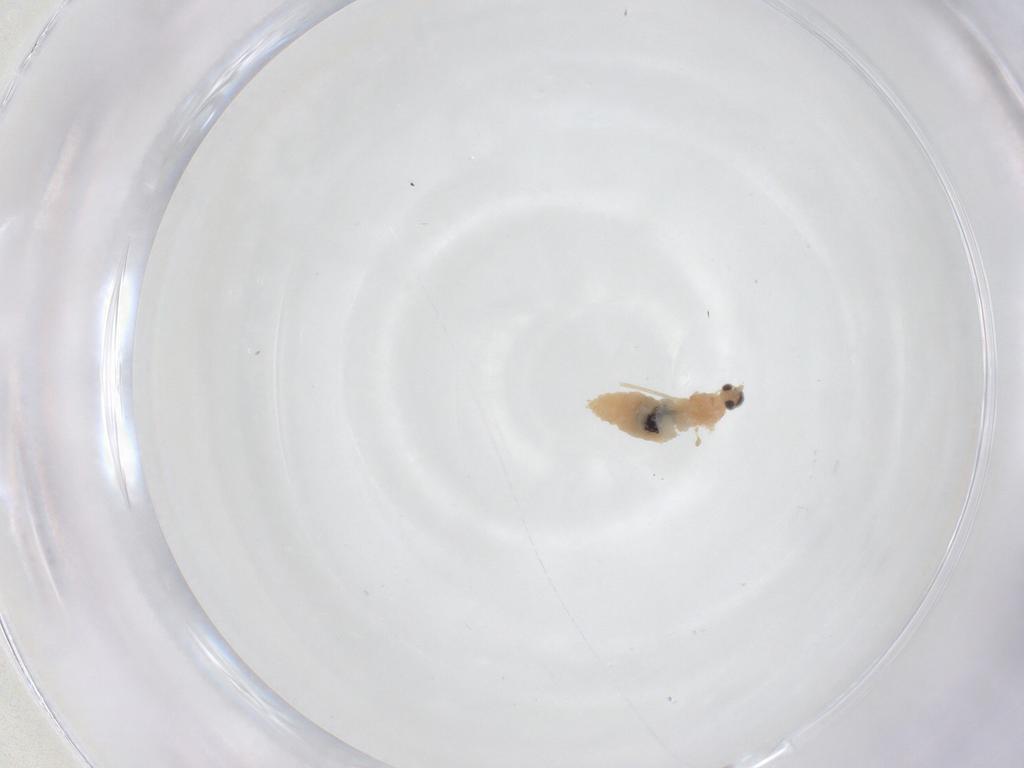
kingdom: Animalia
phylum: Arthropoda
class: Insecta
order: Diptera
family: Cecidomyiidae
